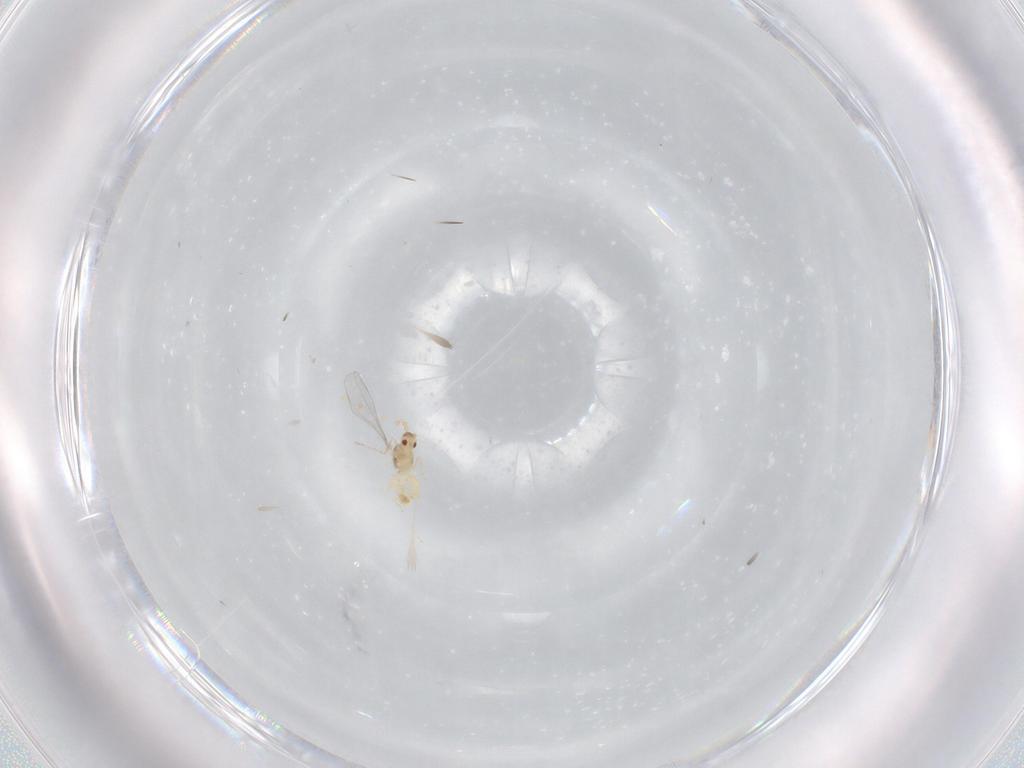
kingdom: Animalia
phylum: Arthropoda
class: Insecta
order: Diptera
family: Cecidomyiidae
